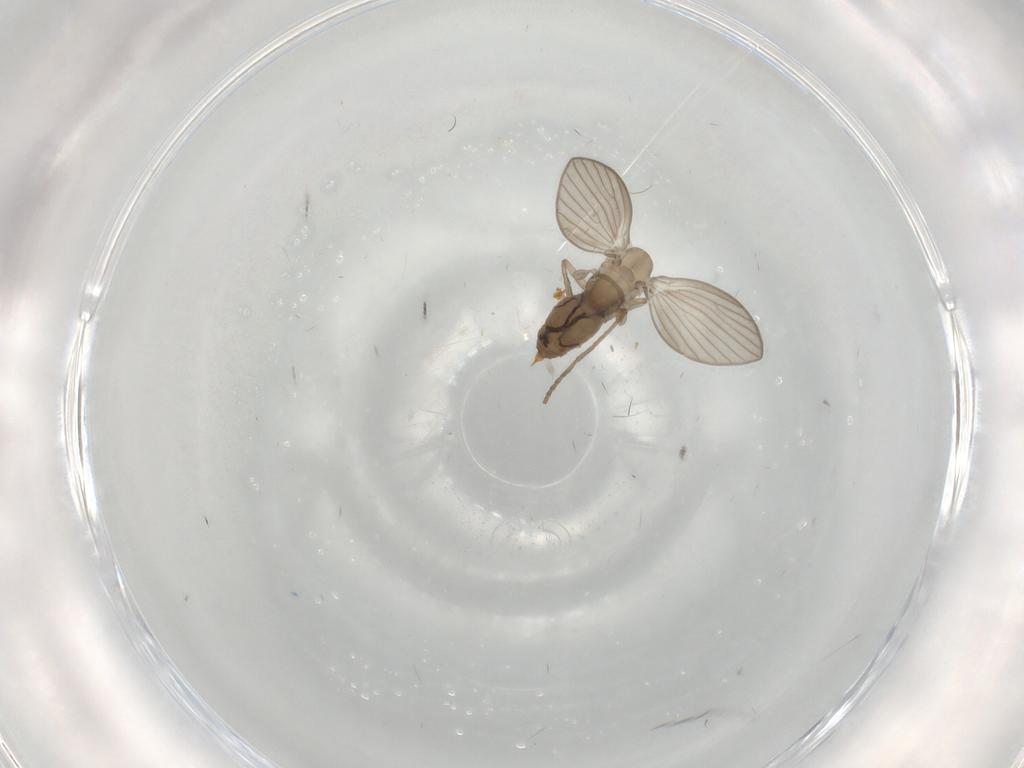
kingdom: Animalia
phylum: Arthropoda
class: Insecta
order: Diptera
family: Psychodidae
